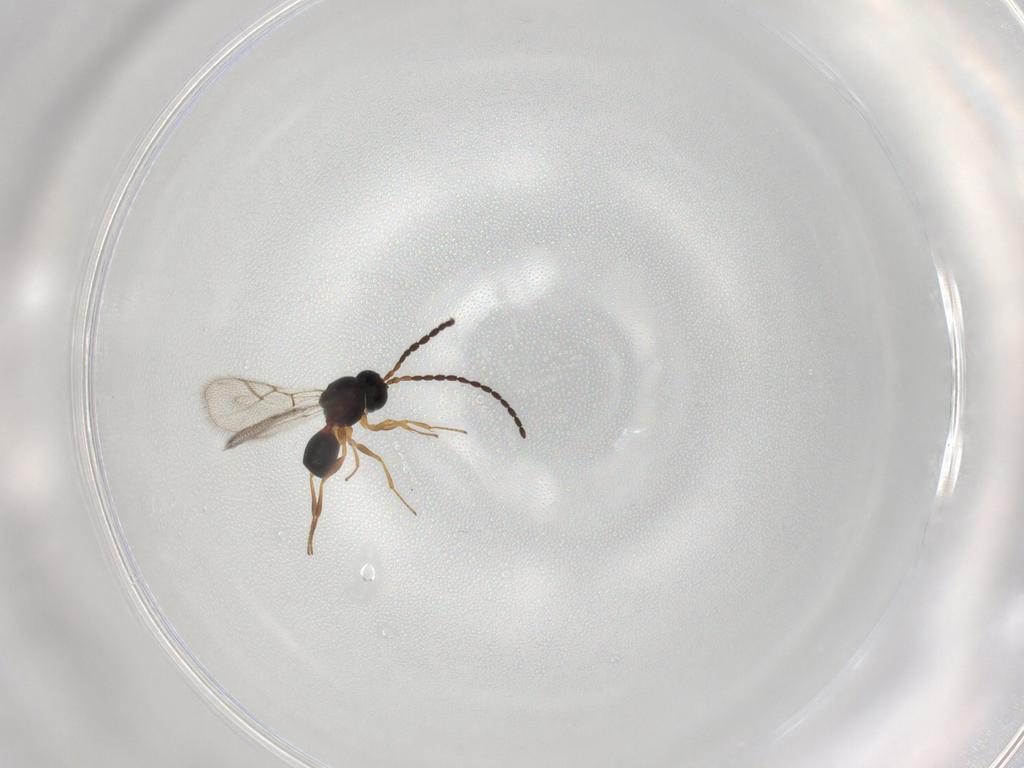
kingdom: Animalia
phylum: Arthropoda
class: Insecta
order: Hymenoptera
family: Figitidae
